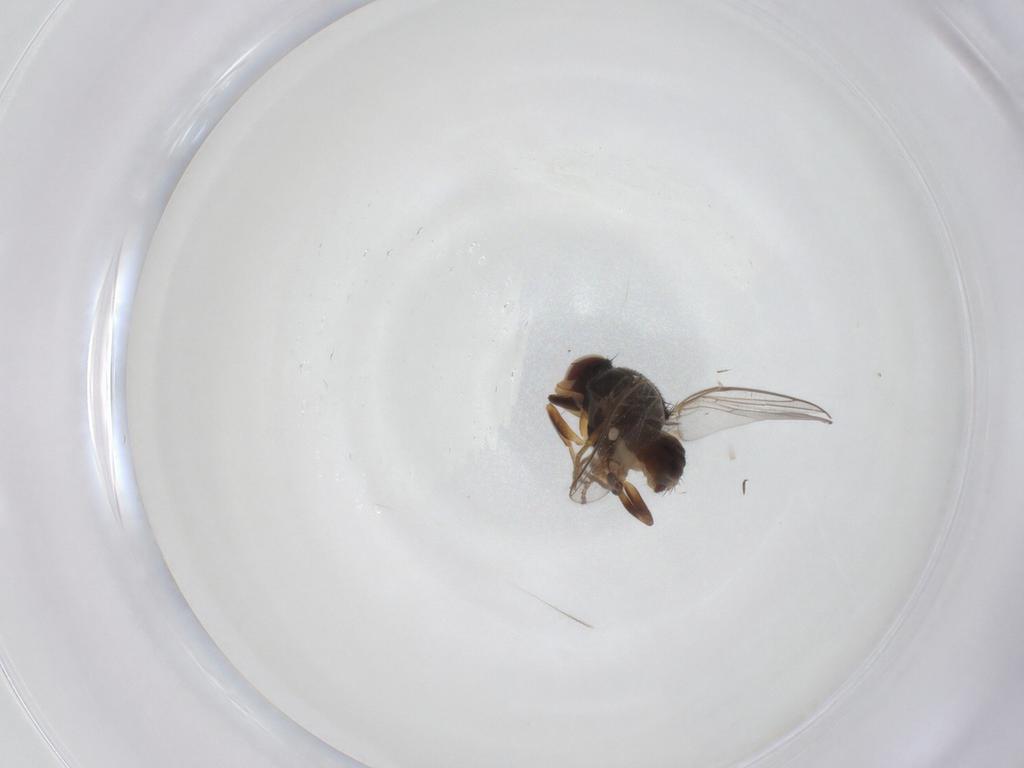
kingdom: Animalia
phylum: Arthropoda
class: Insecta
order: Diptera
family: Chloropidae
